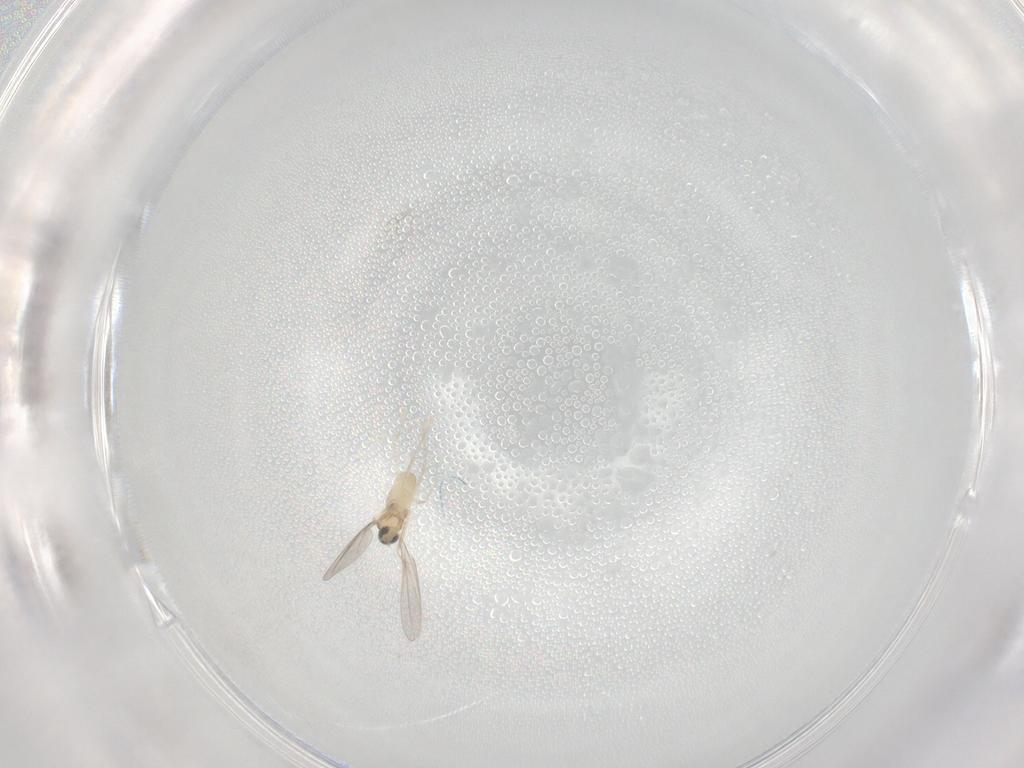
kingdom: Animalia
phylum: Arthropoda
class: Insecta
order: Diptera
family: Cecidomyiidae
